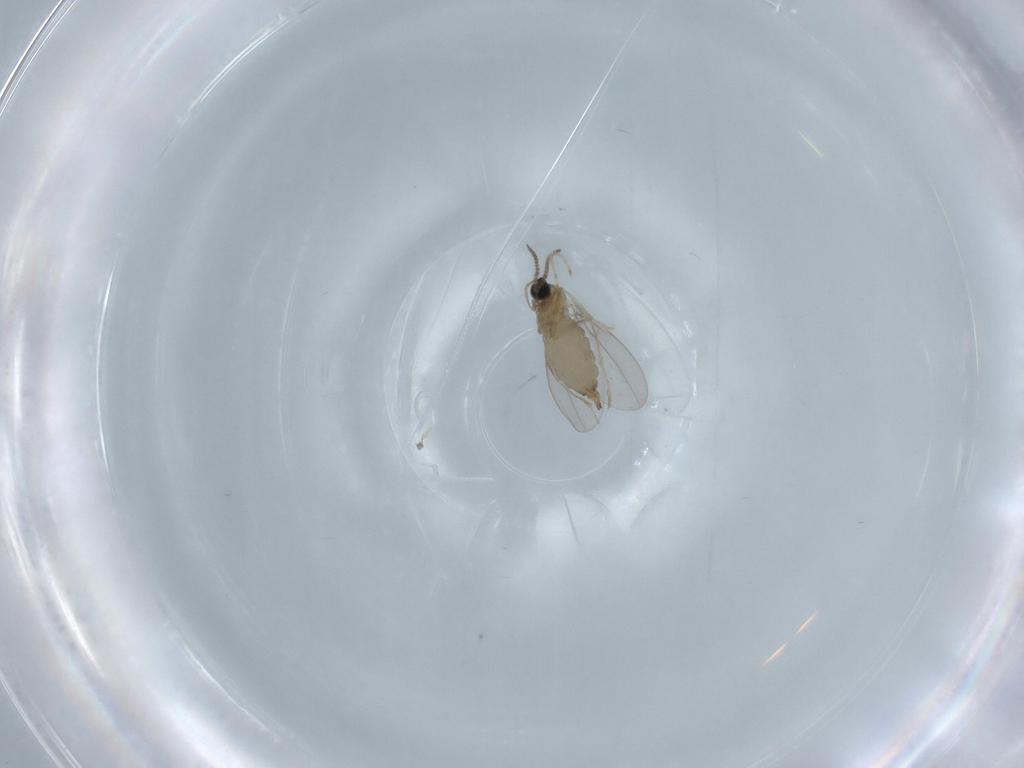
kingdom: Animalia
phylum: Arthropoda
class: Insecta
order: Diptera
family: Cecidomyiidae
